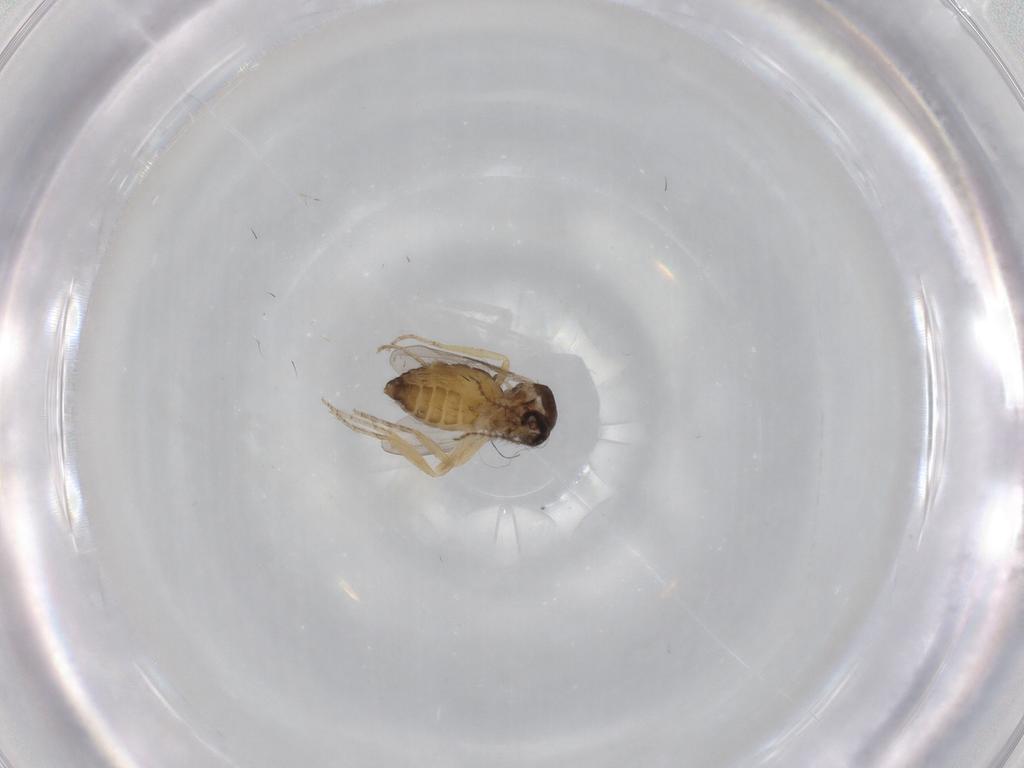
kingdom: Animalia
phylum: Arthropoda
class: Insecta
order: Diptera
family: Ceratopogonidae
